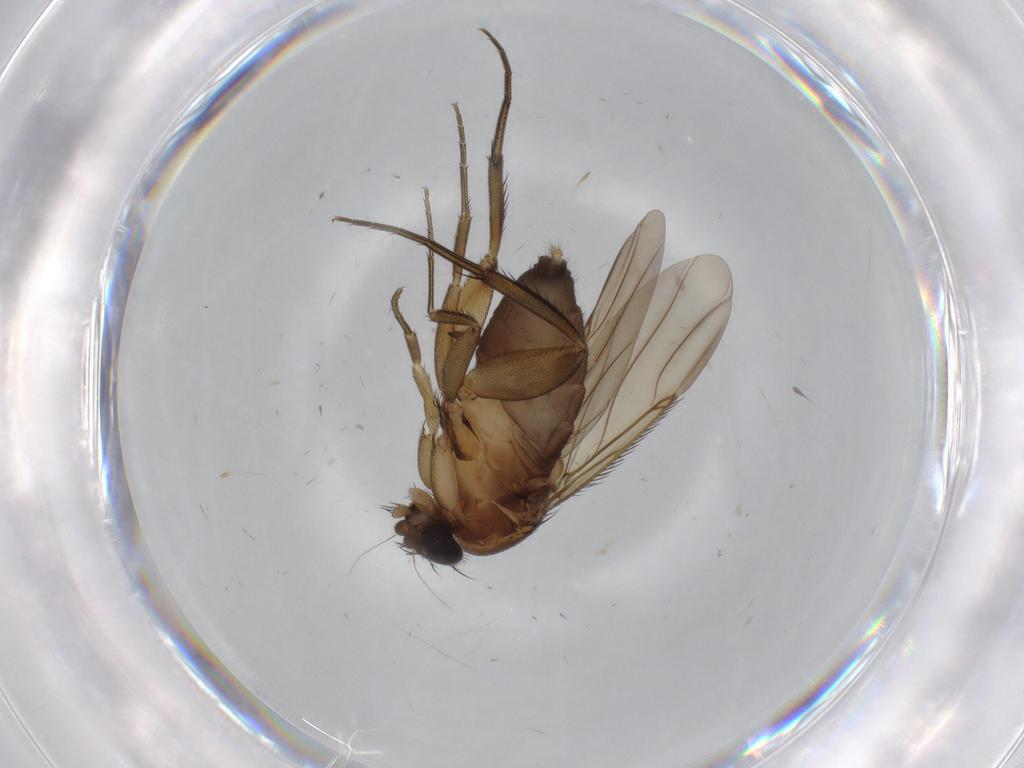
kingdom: Animalia
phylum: Arthropoda
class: Insecta
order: Diptera
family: Phoridae
